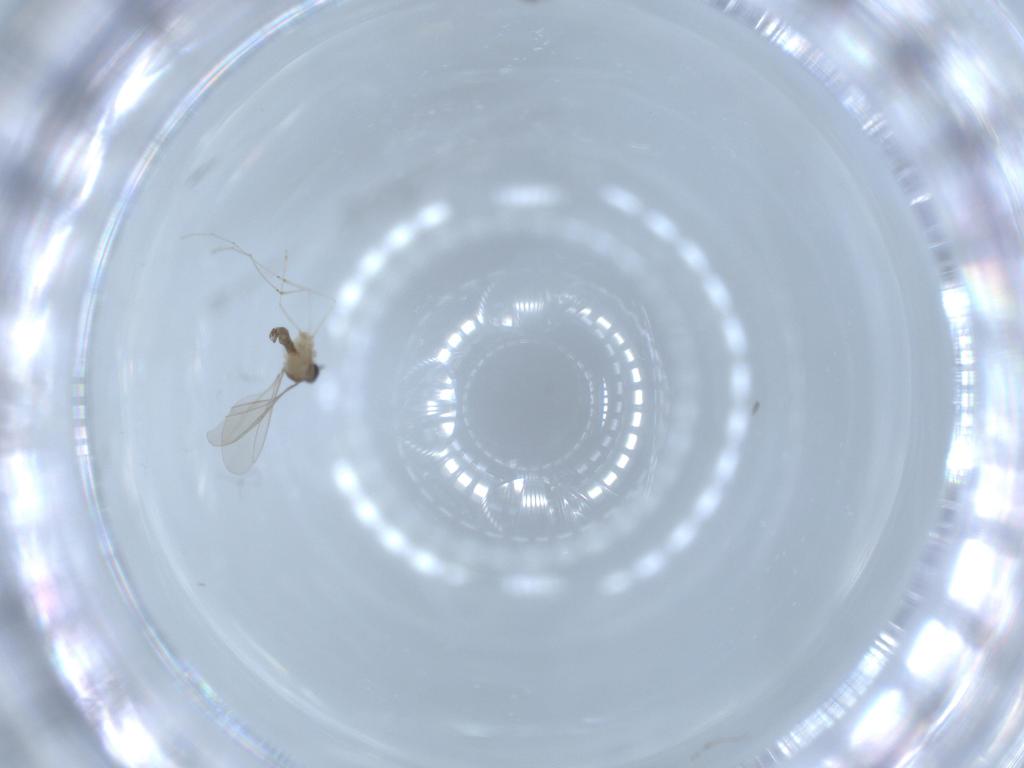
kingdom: Animalia
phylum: Arthropoda
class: Insecta
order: Diptera
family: Cecidomyiidae
